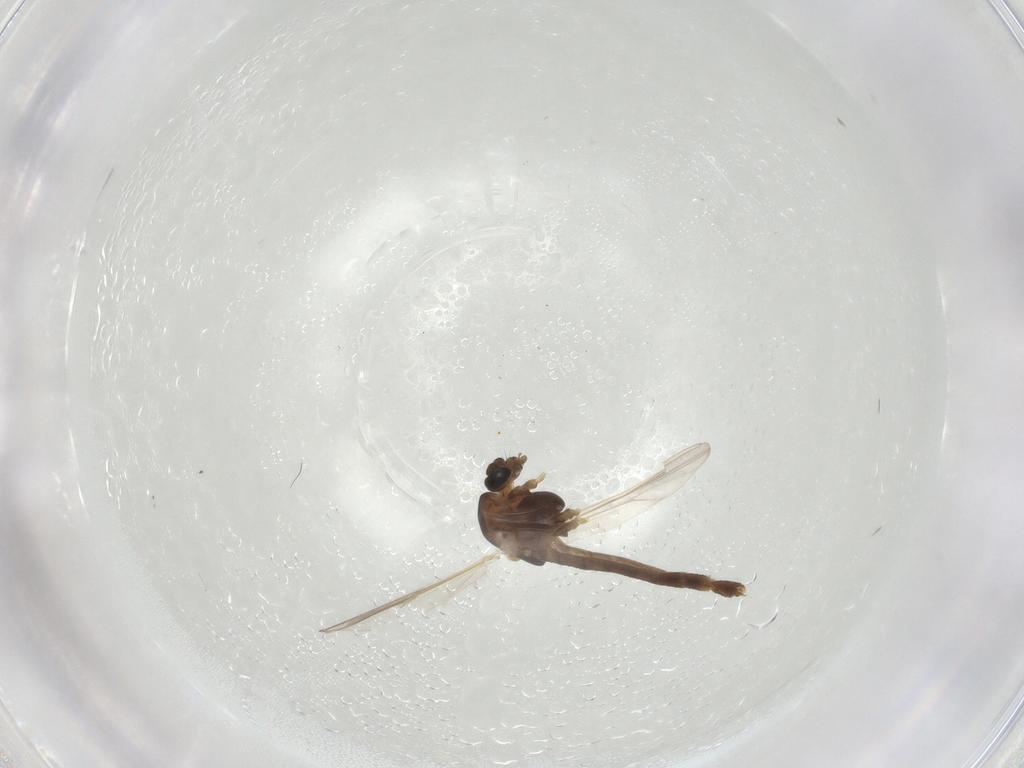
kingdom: Animalia
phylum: Arthropoda
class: Insecta
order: Diptera
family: Chironomidae
